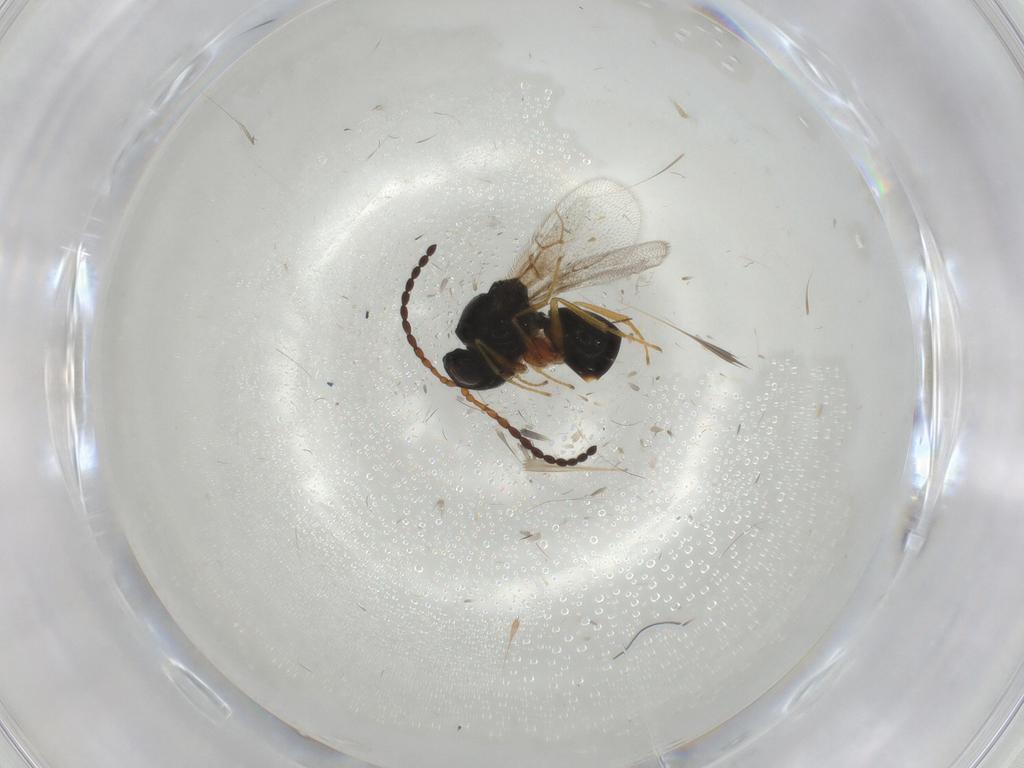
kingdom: Animalia
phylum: Arthropoda
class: Insecta
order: Hymenoptera
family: Figitidae
